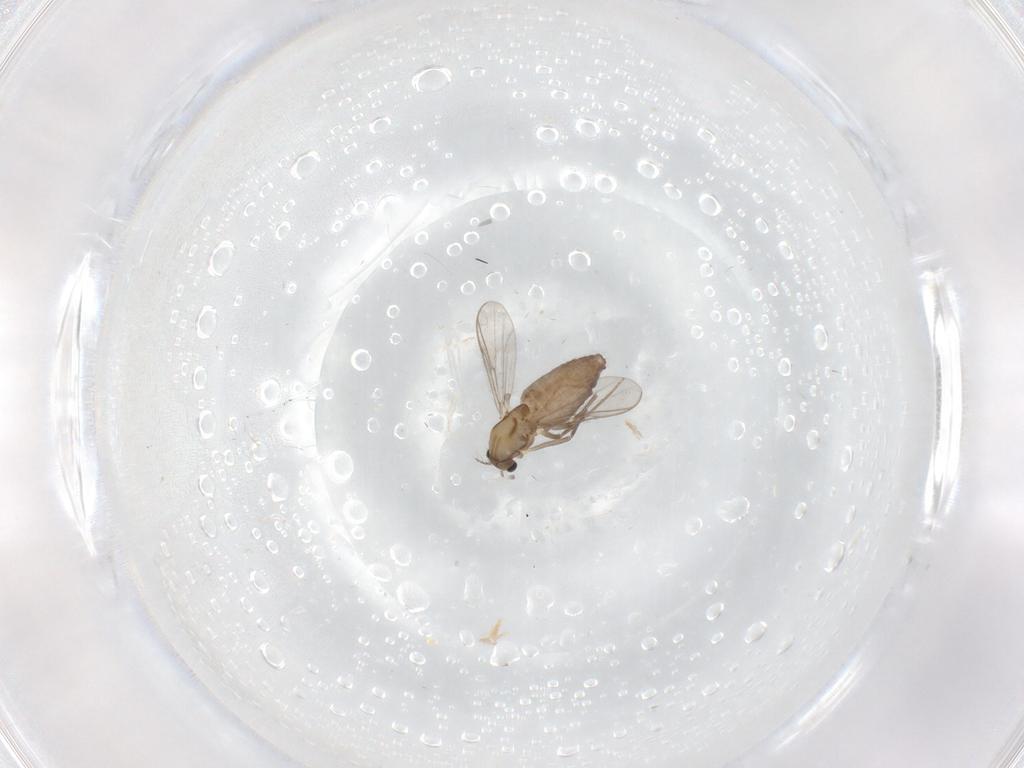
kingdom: Animalia
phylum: Arthropoda
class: Insecta
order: Diptera
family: Chironomidae
